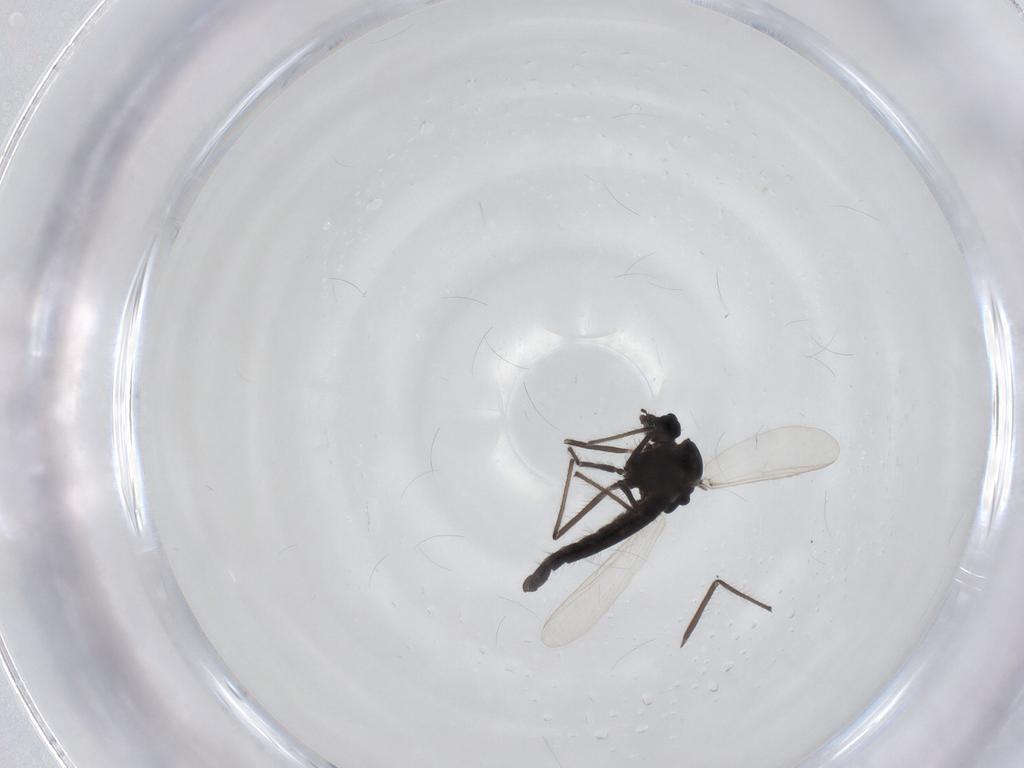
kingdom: Animalia
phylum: Arthropoda
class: Insecta
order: Diptera
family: Chironomidae
